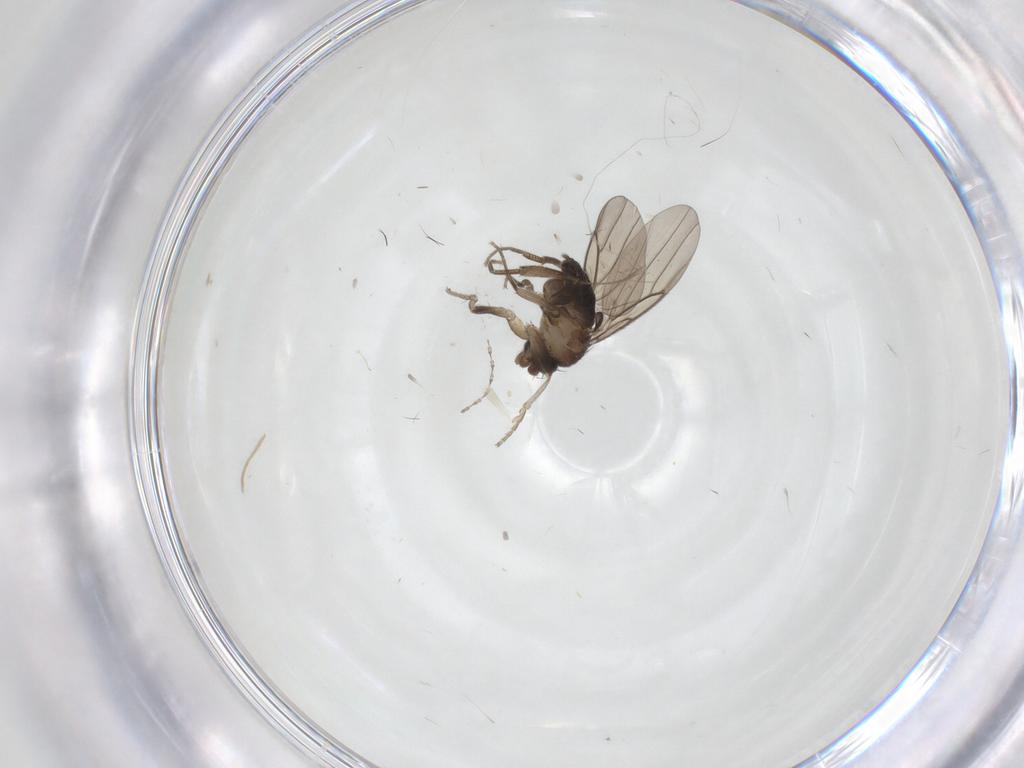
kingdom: Animalia
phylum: Arthropoda
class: Insecta
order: Diptera
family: Cecidomyiidae
